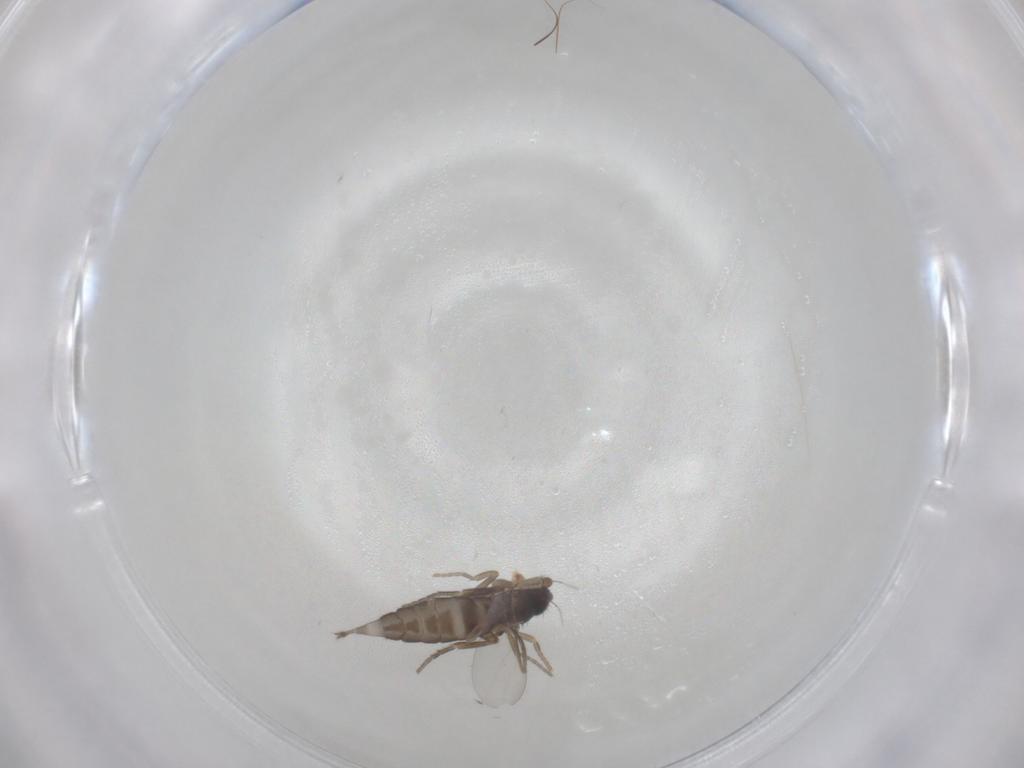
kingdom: Animalia
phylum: Arthropoda
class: Insecta
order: Diptera
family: Phoridae
